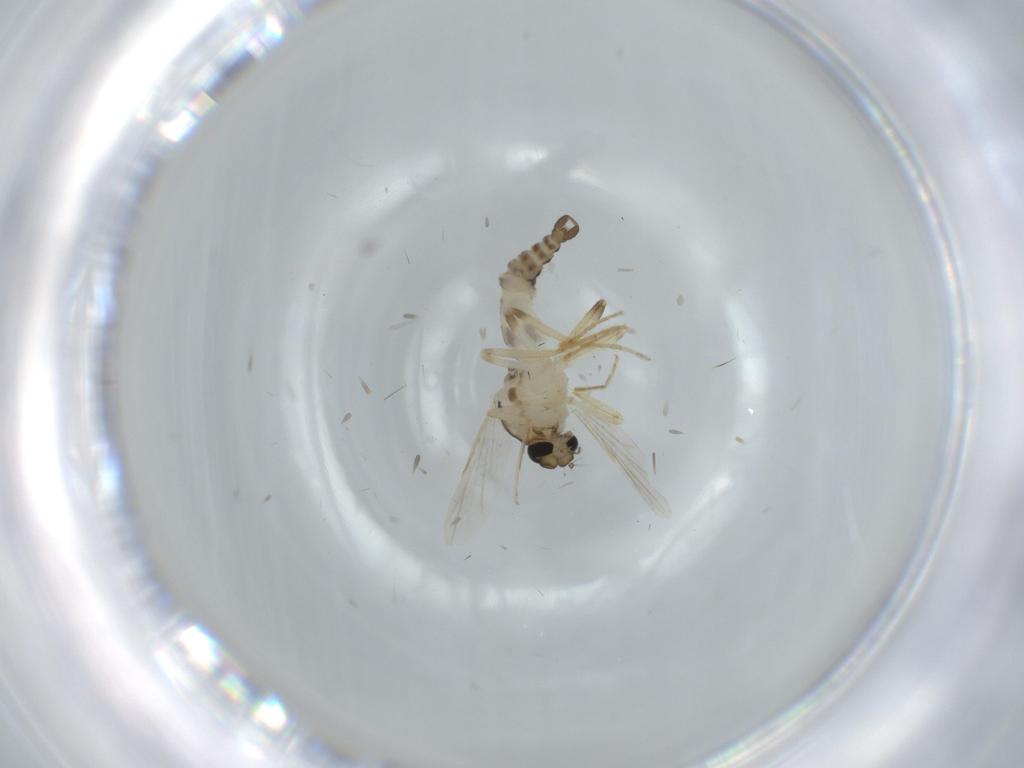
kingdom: Animalia
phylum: Arthropoda
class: Insecta
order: Diptera
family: Ceratopogonidae
